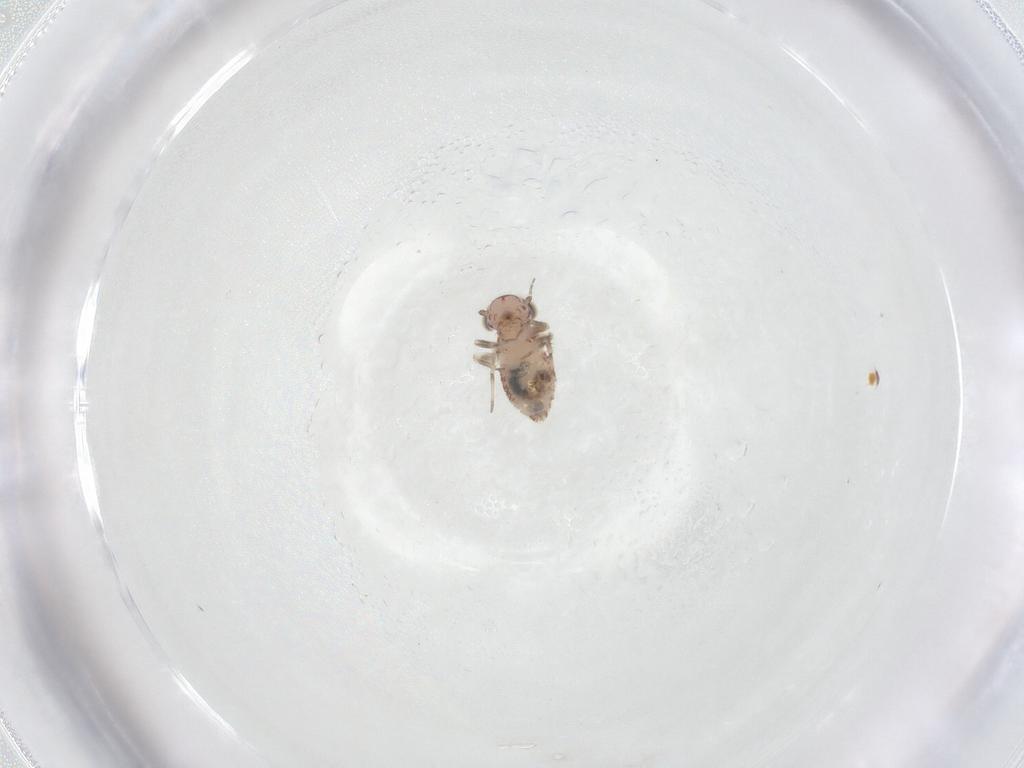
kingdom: Animalia
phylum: Arthropoda
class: Insecta
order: Psocodea
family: Amphientomidae
